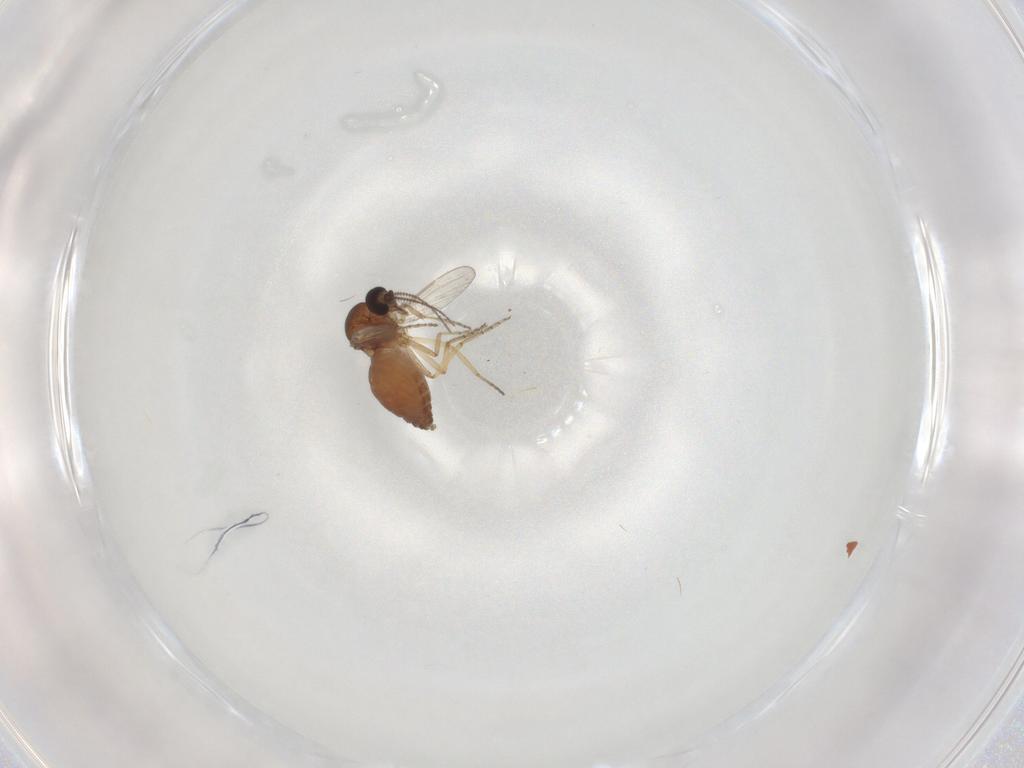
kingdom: Animalia
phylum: Arthropoda
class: Insecta
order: Diptera
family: Ceratopogonidae
